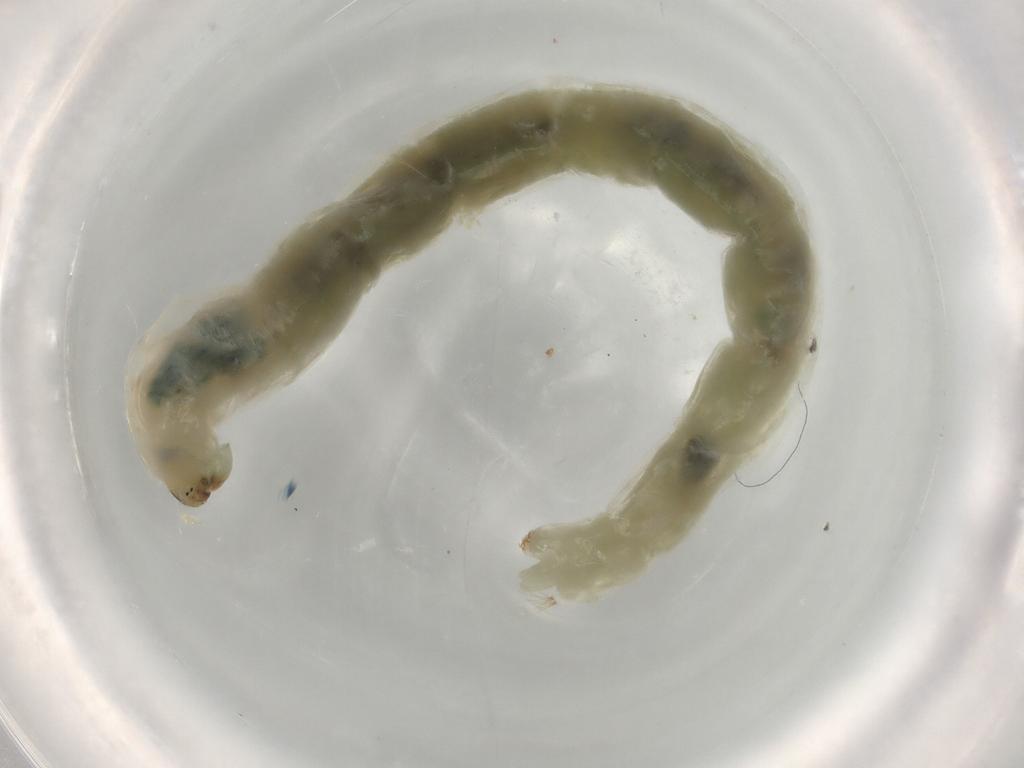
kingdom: Animalia
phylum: Arthropoda
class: Insecta
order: Diptera
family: Chironomidae
